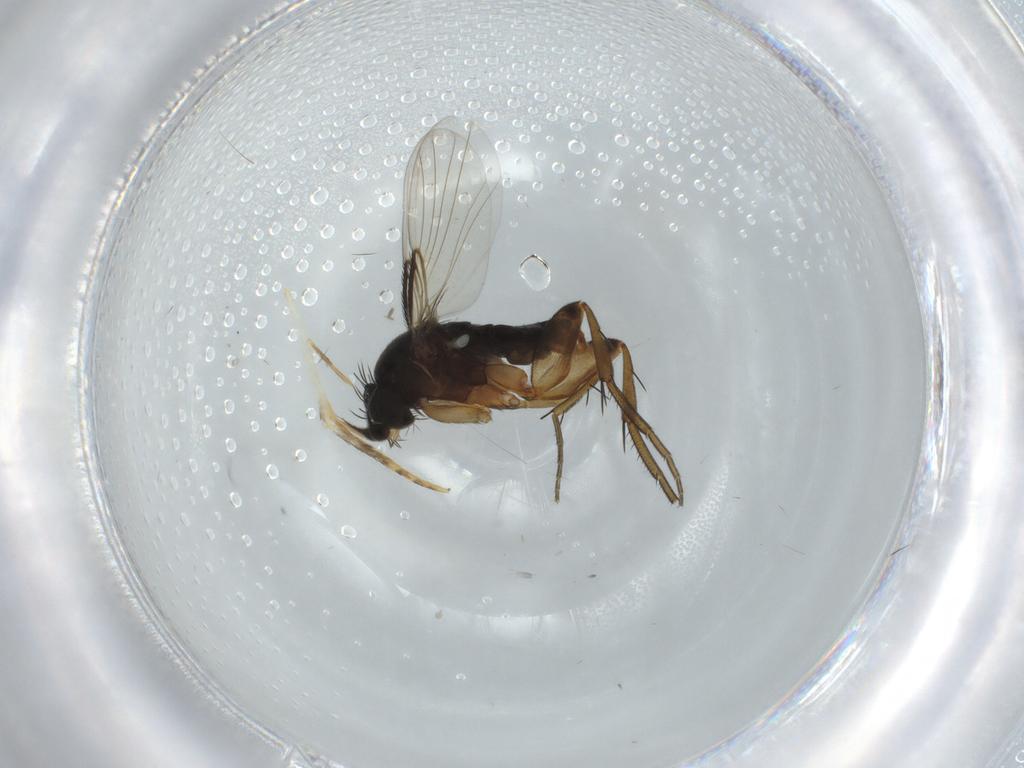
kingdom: Animalia
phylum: Arthropoda
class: Insecta
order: Diptera
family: Phoridae
